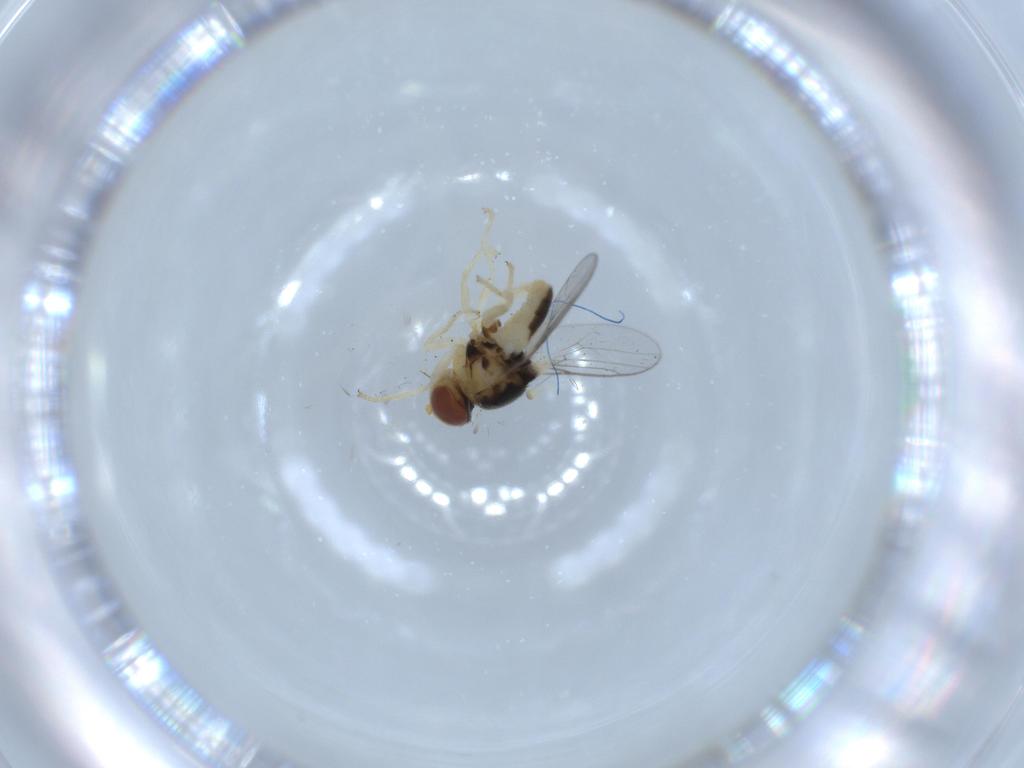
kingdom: Animalia
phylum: Arthropoda
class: Insecta
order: Diptera
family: Chloropidae
